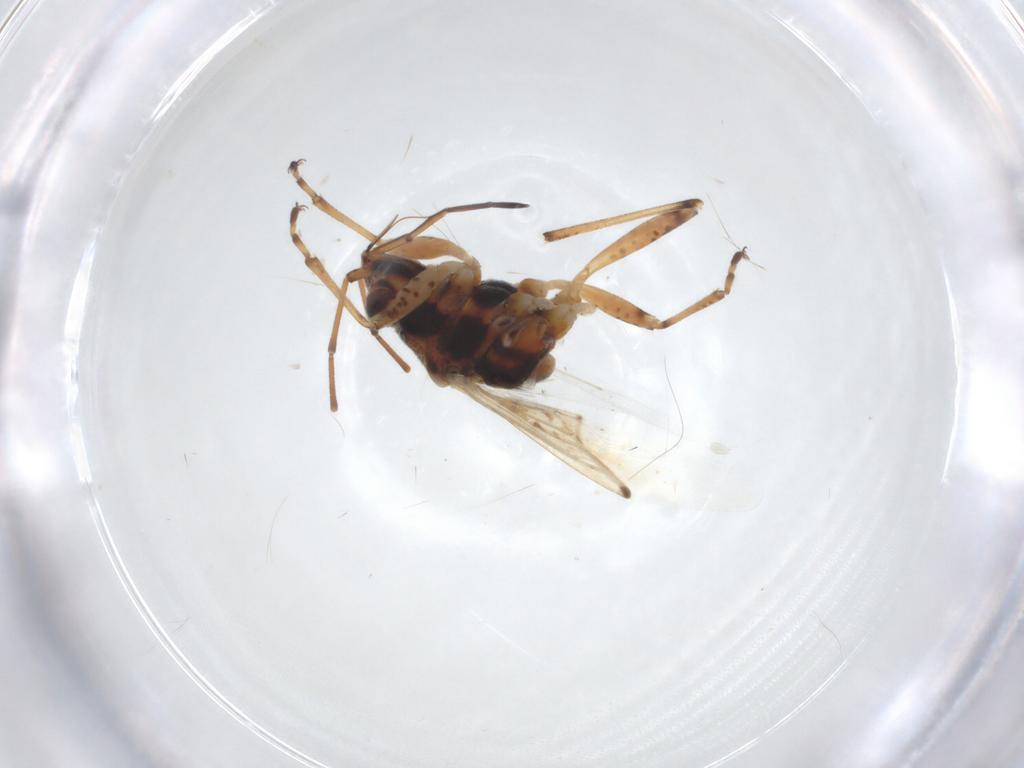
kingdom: Animalia
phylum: Arthropoda
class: Insecta
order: Hemiptera
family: Lygaeidae
